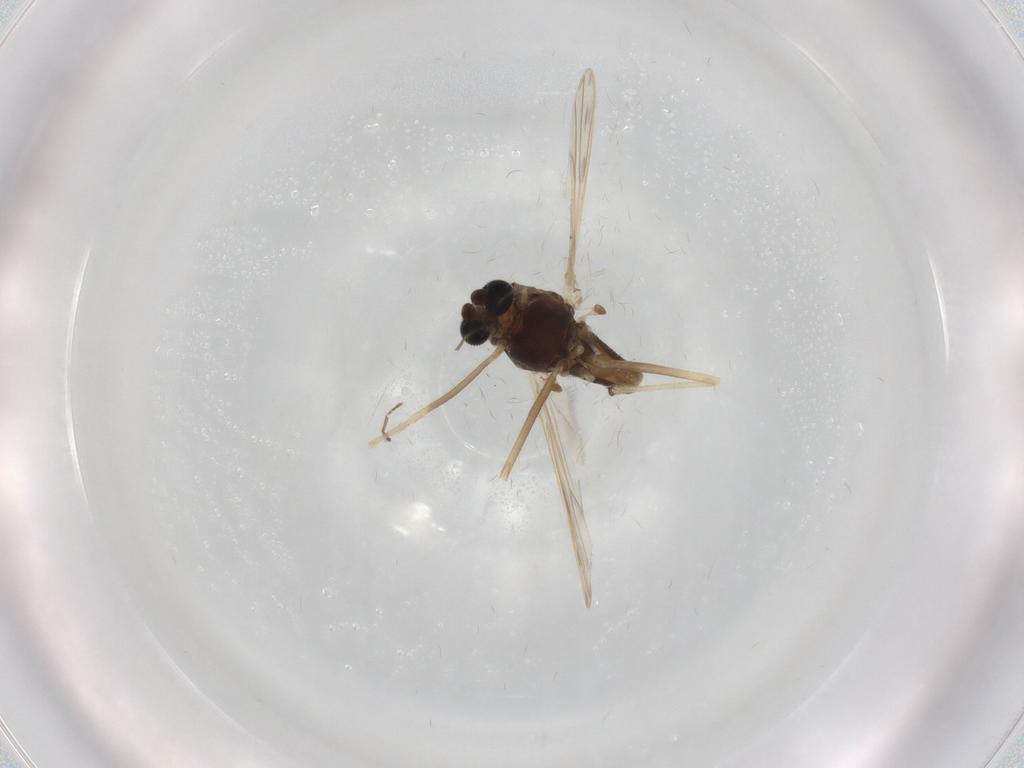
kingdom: Animalia
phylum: Arthropoda
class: Insecta
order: Diptera
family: Chironomidae
